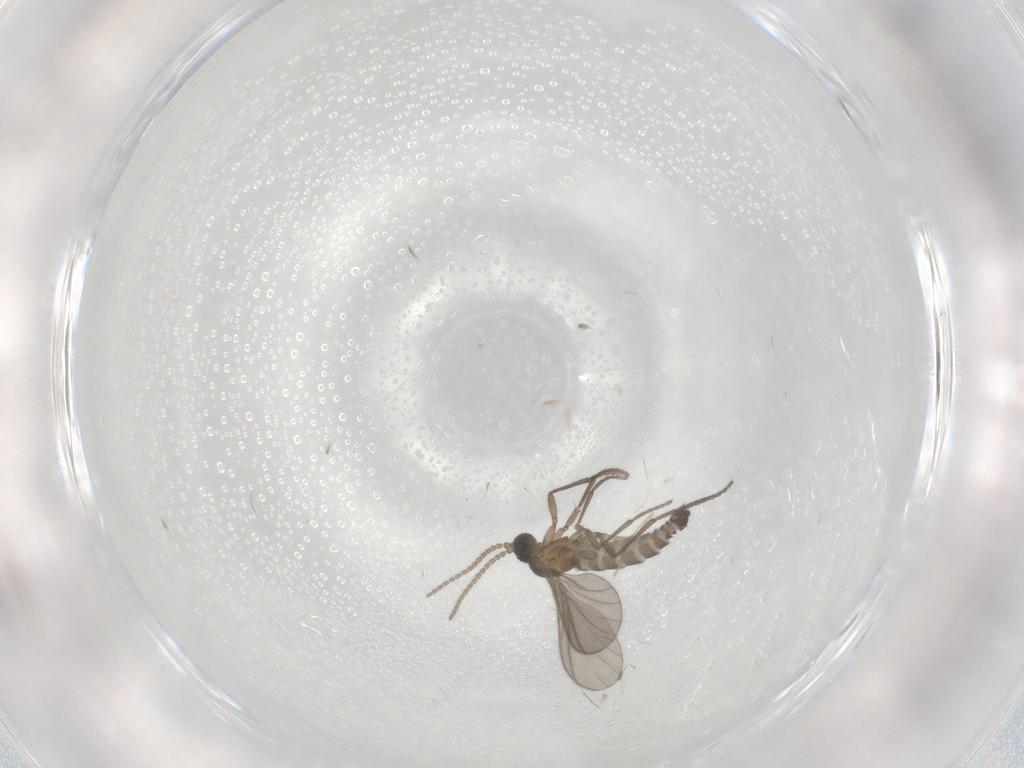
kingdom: Animalia
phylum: Arthropoda
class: Insecta
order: Diptera
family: Sciaridae
